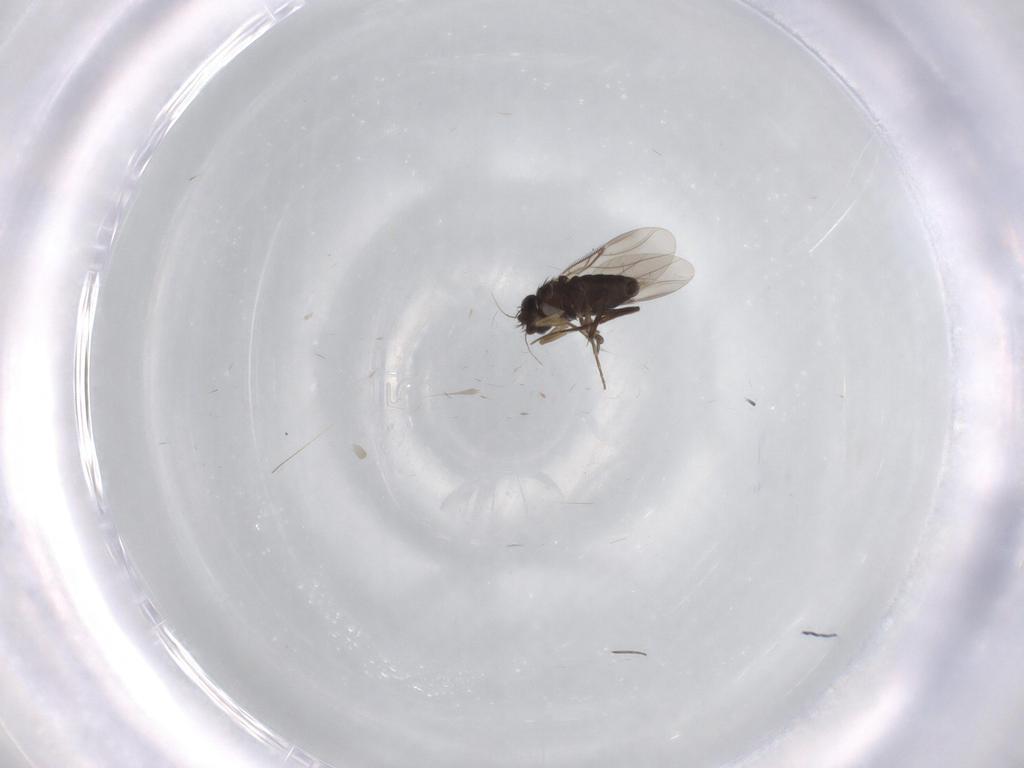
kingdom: Animalia
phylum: Arthropoda
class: Insecta
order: Diptera
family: Phoridae
